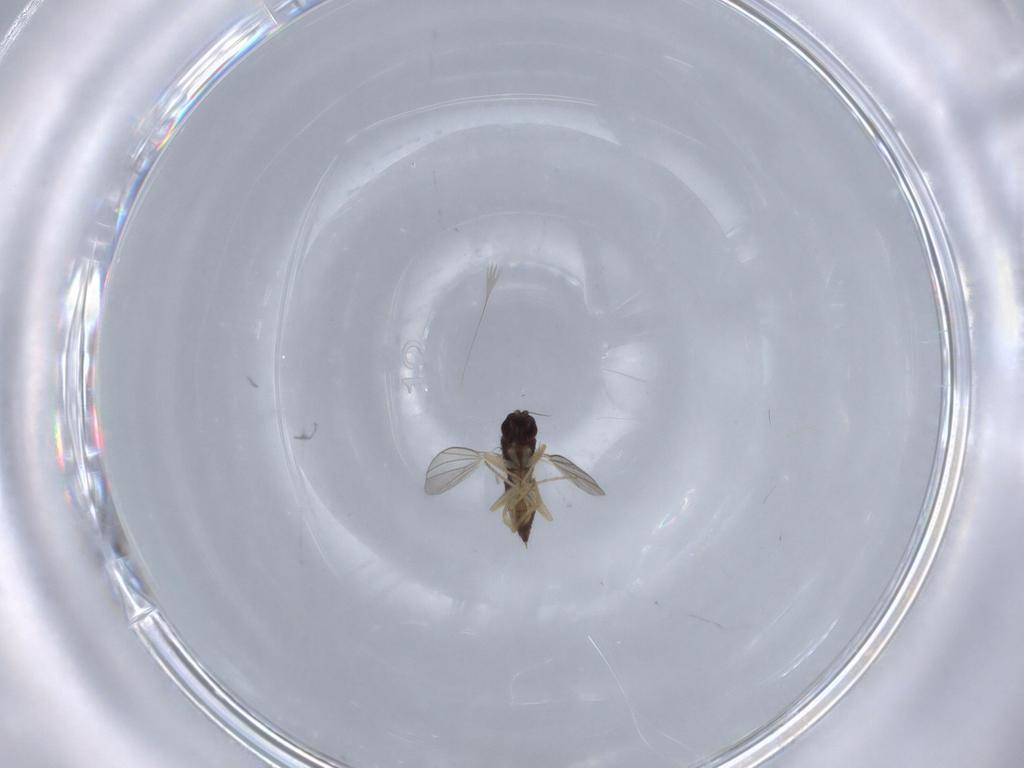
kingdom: Animalia
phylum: Arthropoda
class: Insecta
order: Diptera
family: Dolichopodidae
